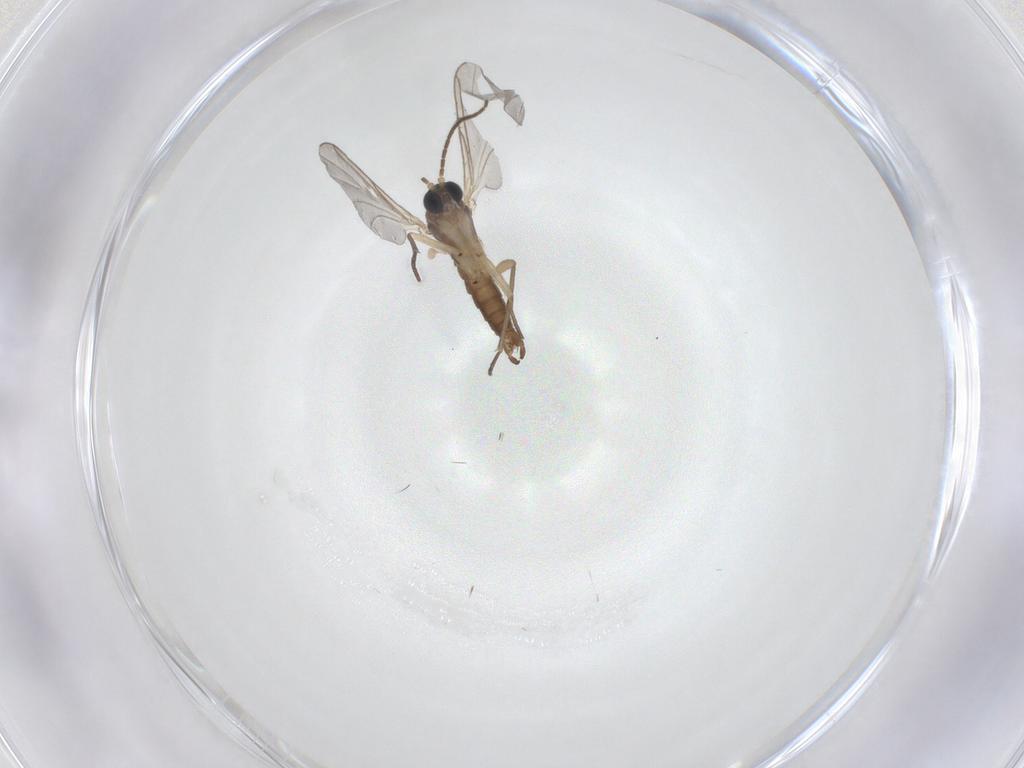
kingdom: Animalia
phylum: Arthropoda
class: Insecta
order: Diptera
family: Sciaridae
